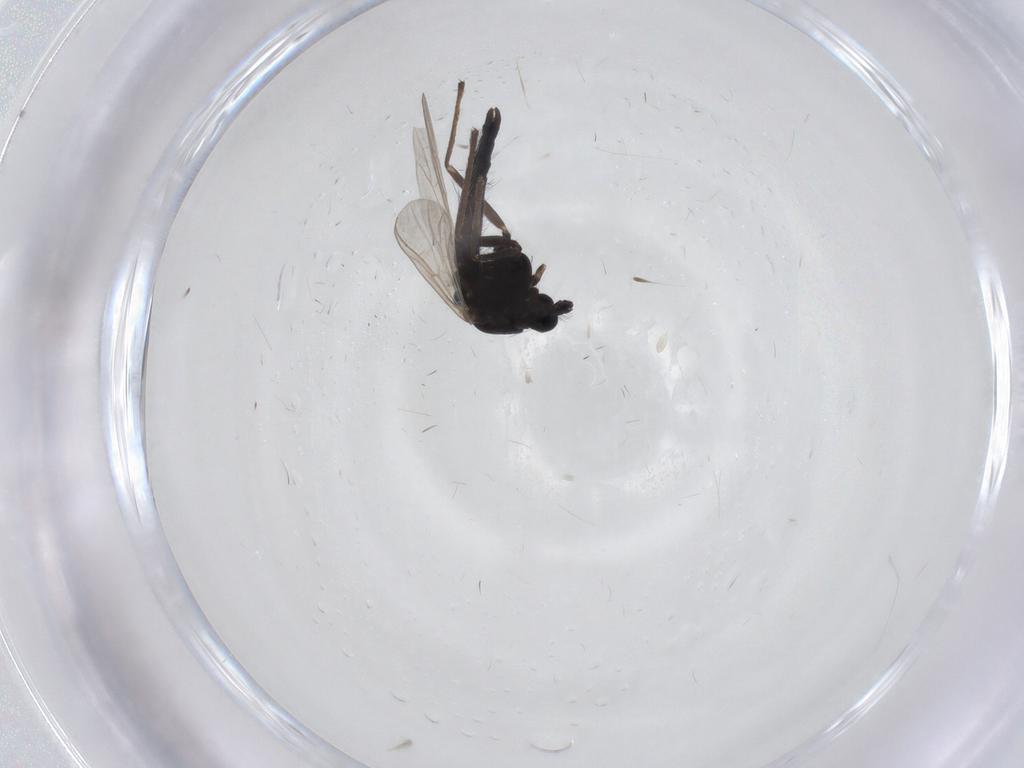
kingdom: Animalia
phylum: Arthropoda
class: Insecta
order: Diptera
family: Chironomidae
